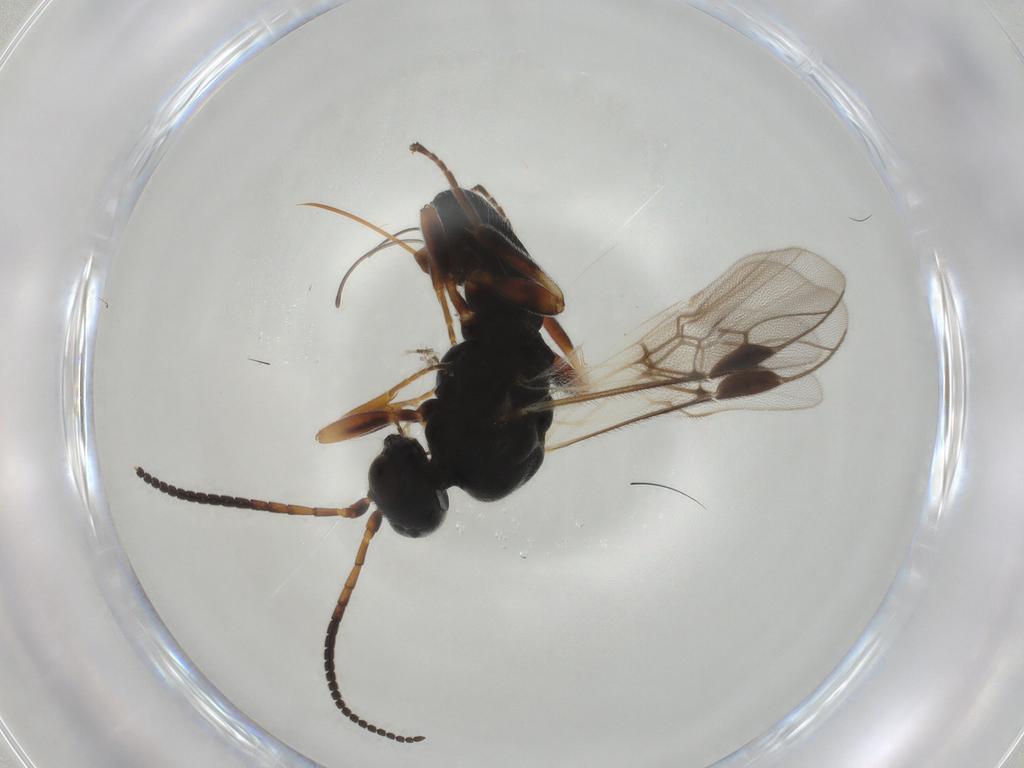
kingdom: Animalia
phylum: Arthropoda
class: Insecta
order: Hymenoptera
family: Braconidae
